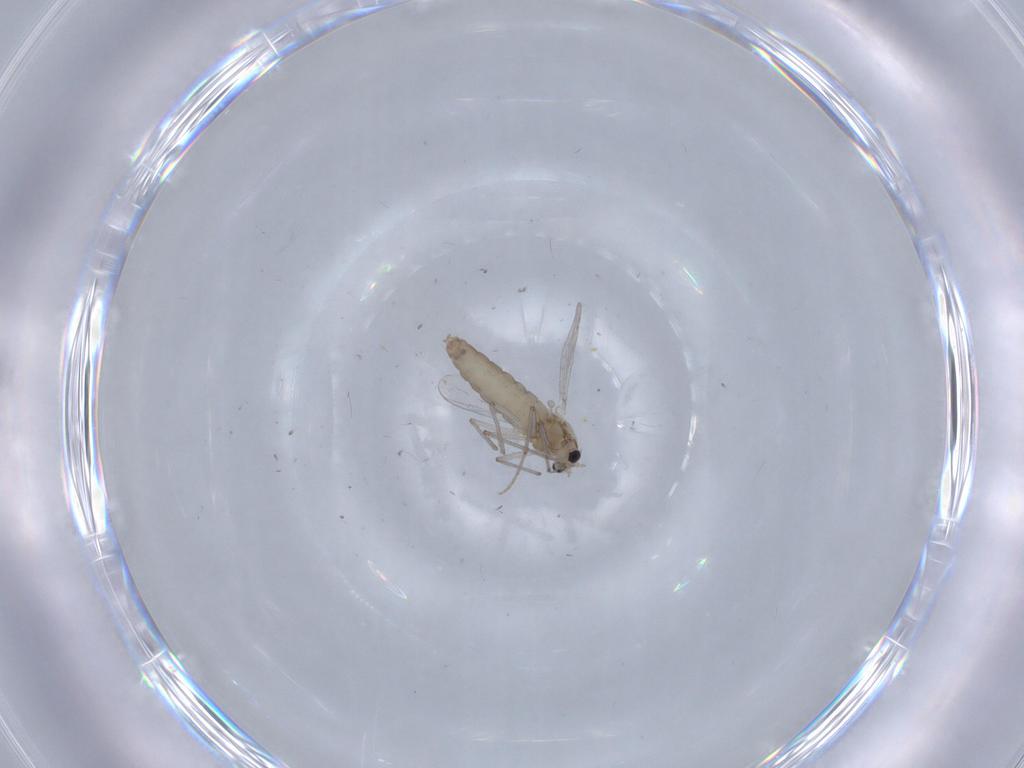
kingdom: Animalia
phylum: Arthropoda
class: Insecta
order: Diptera
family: Chironomidae
